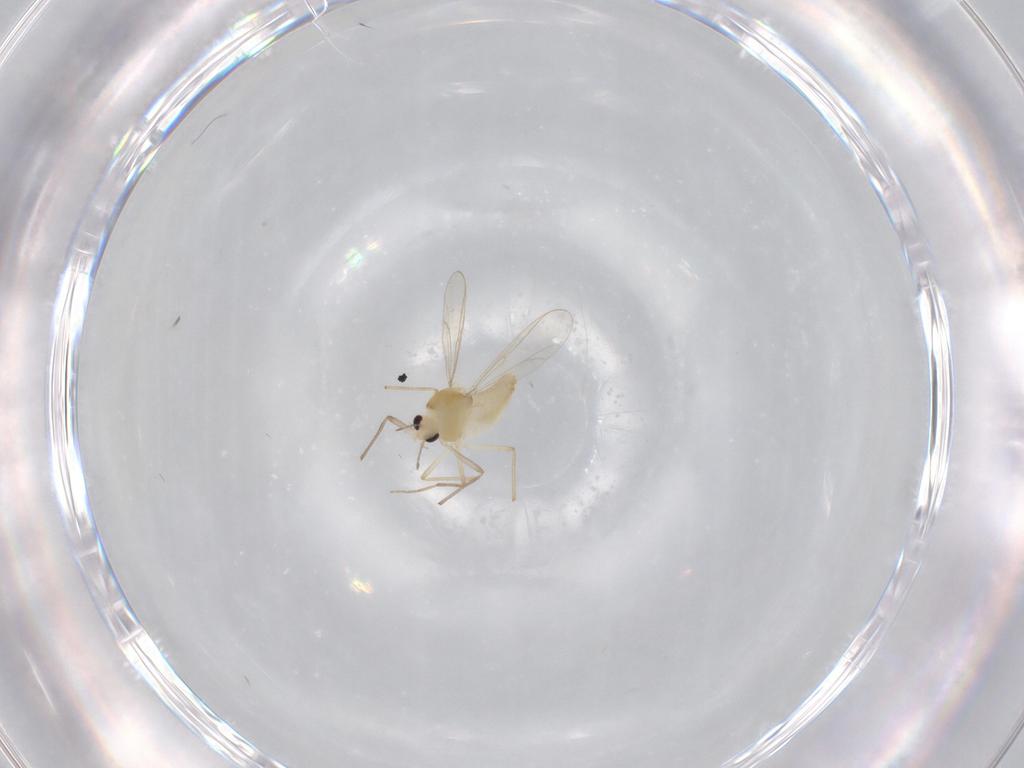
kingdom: Animalia
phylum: Arthropoda
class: Insecta
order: Diptera
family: Chironomidae
